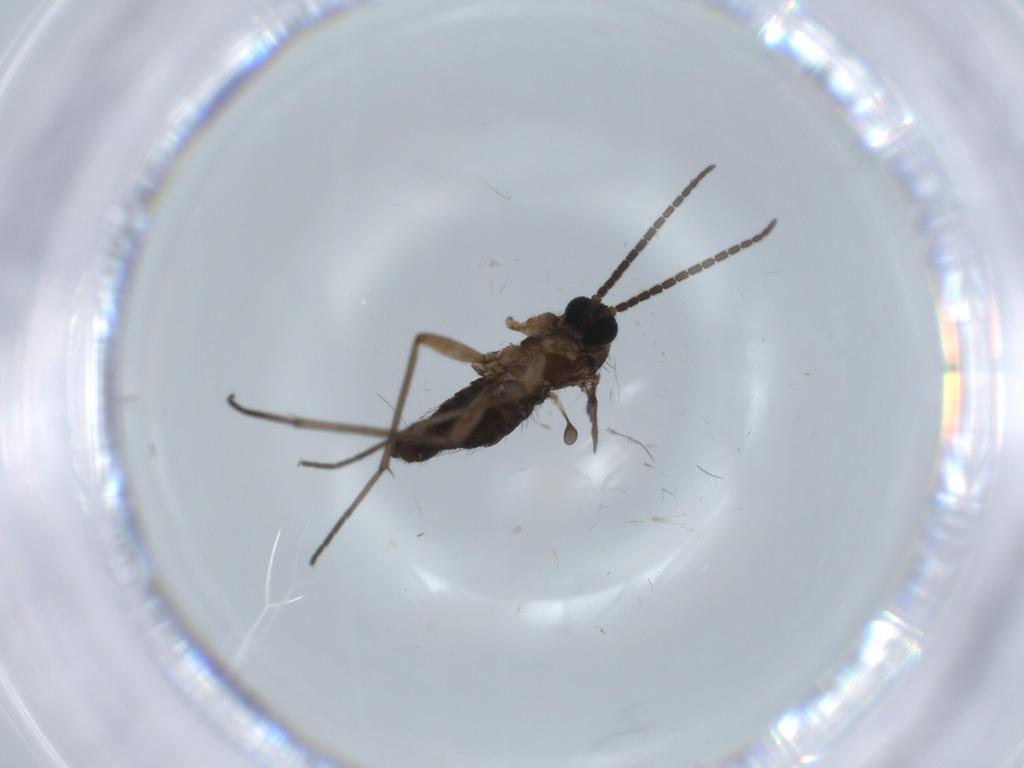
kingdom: Animalia
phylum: Arthropoda
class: Insecta
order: Diptera
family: Sciaridae
